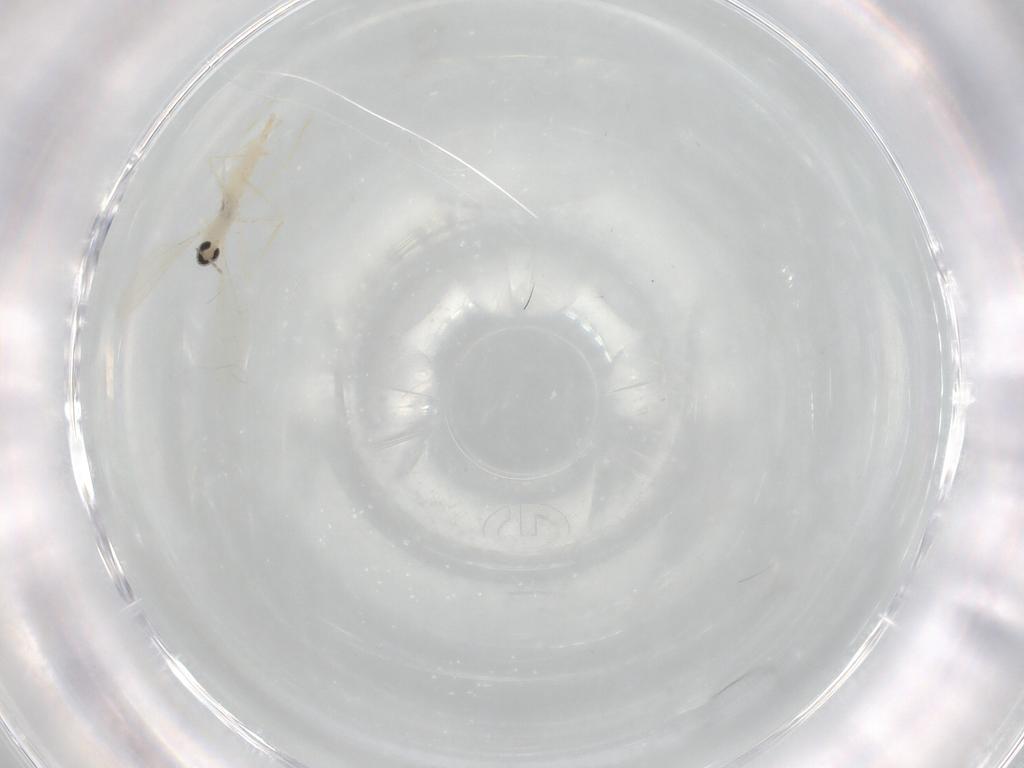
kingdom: Animalia
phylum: Arthropoda
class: Insecta
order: Diptera
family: Cecidomyiidae
